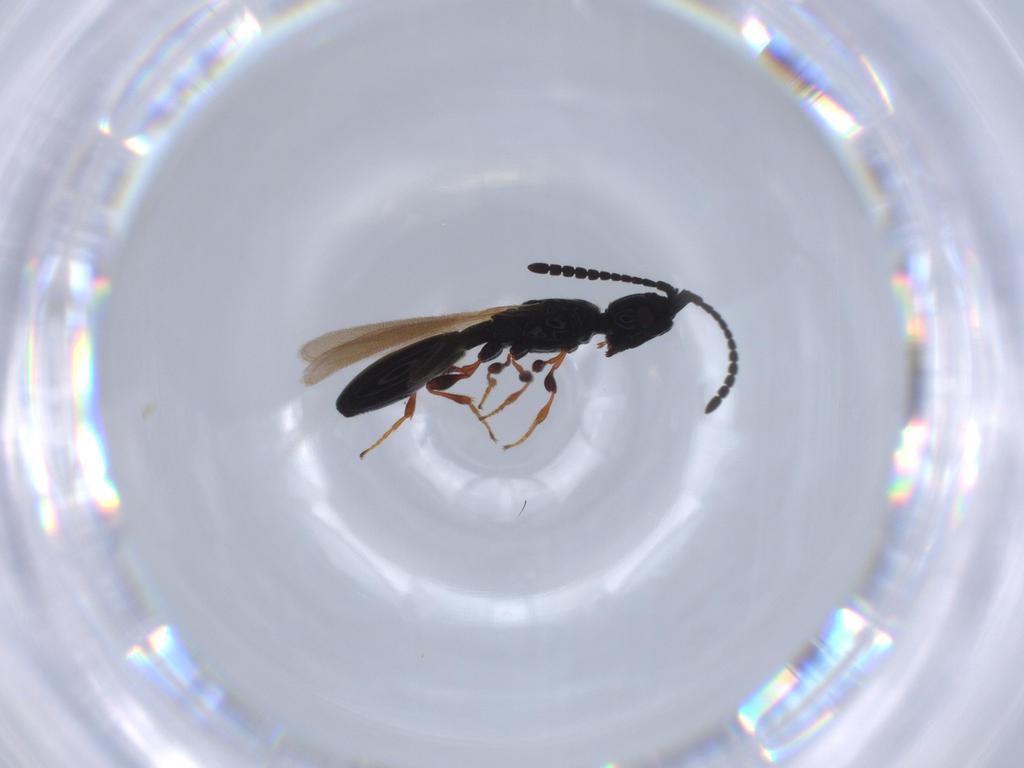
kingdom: Animalia
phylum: Arthropoda
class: Insecta
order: Hymenoptera
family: Diapriidae
